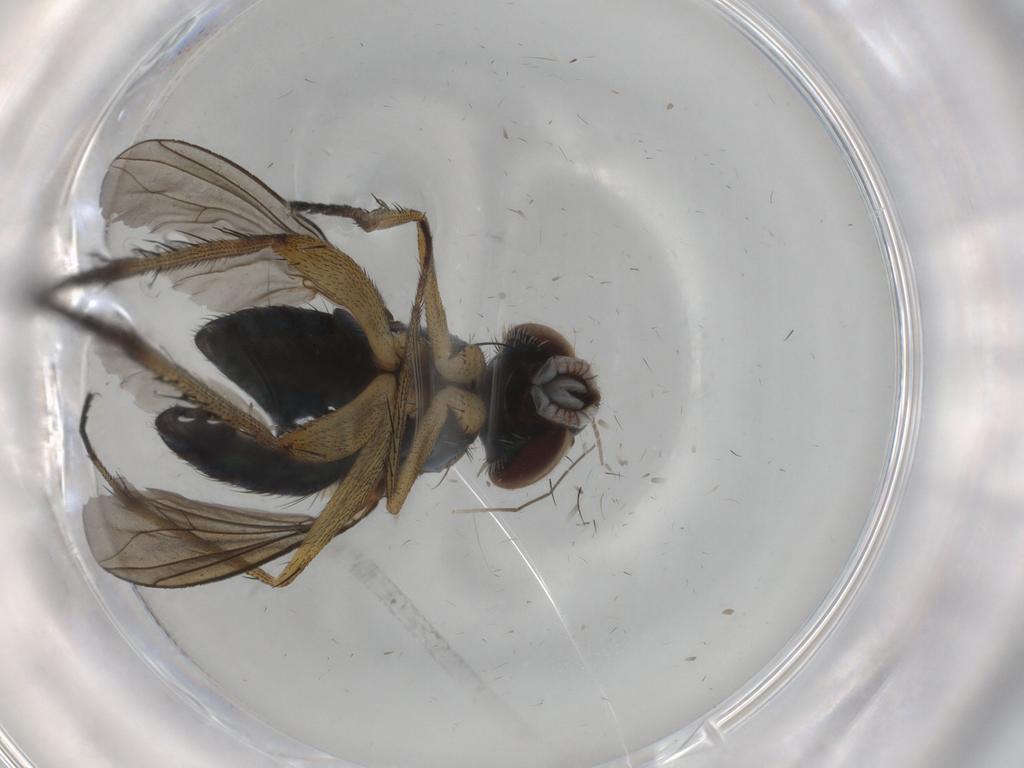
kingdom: Animalia
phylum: Arthropoda
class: Insecta
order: Diptera
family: Dolichopodidae
